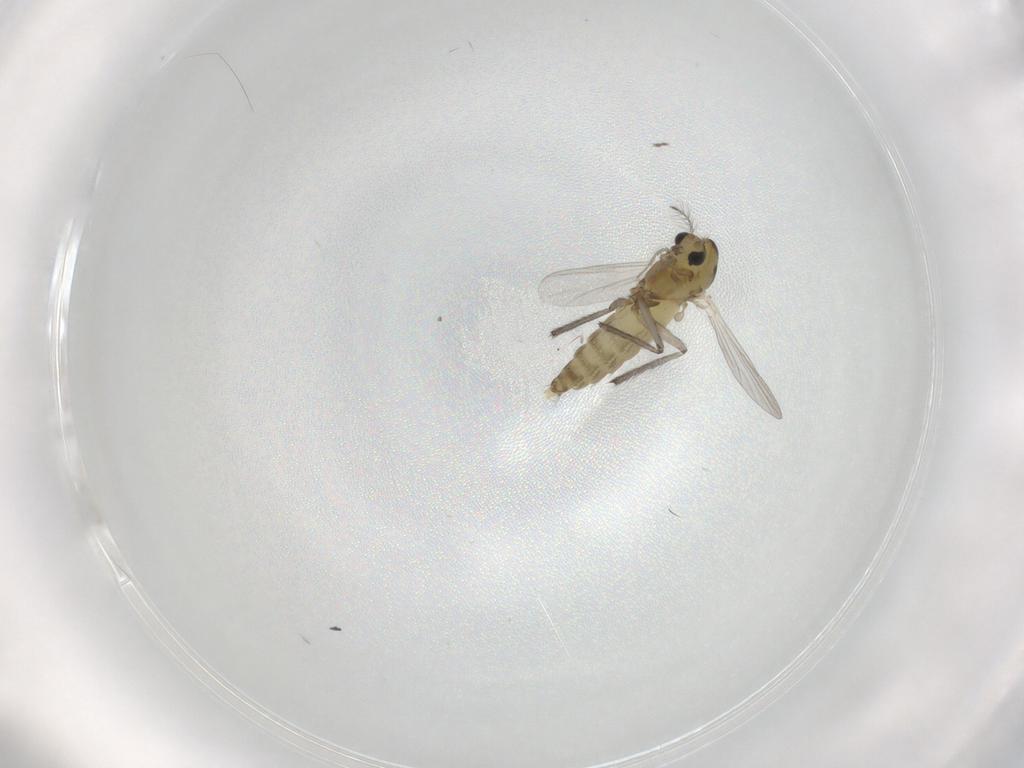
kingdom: Animalia
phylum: Arthropoda
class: Insecta
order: Diptera
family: Chironomidae
